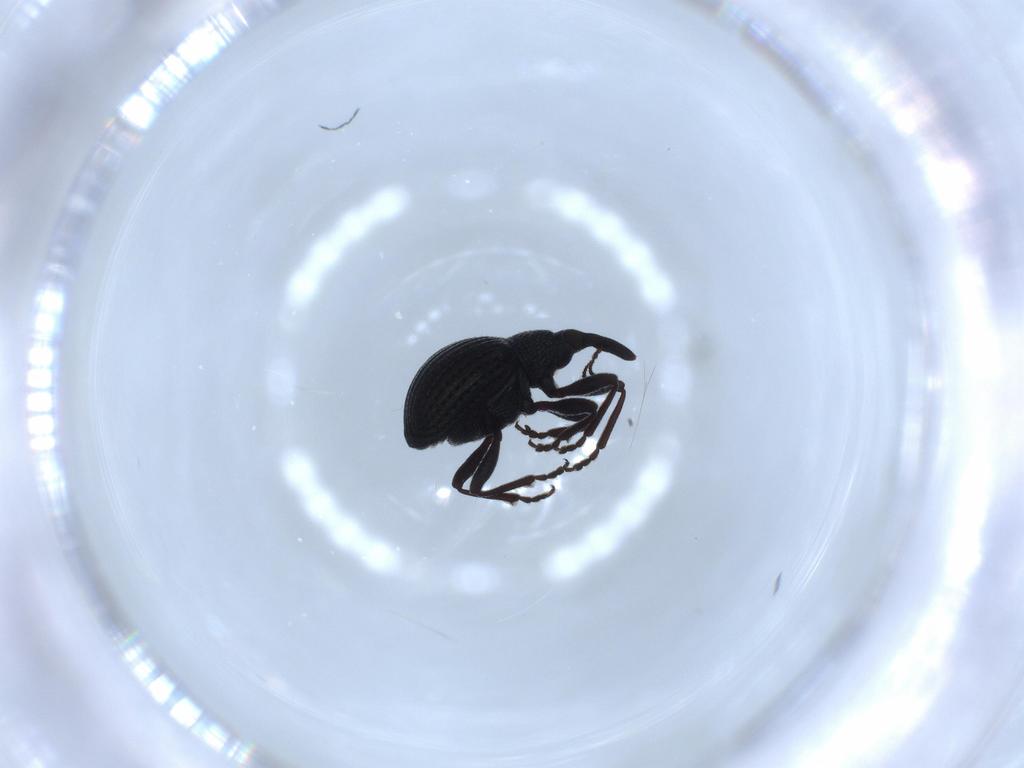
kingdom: Animalia
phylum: Arthropoda
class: Insecta
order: Coleoptera
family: Brentidae
